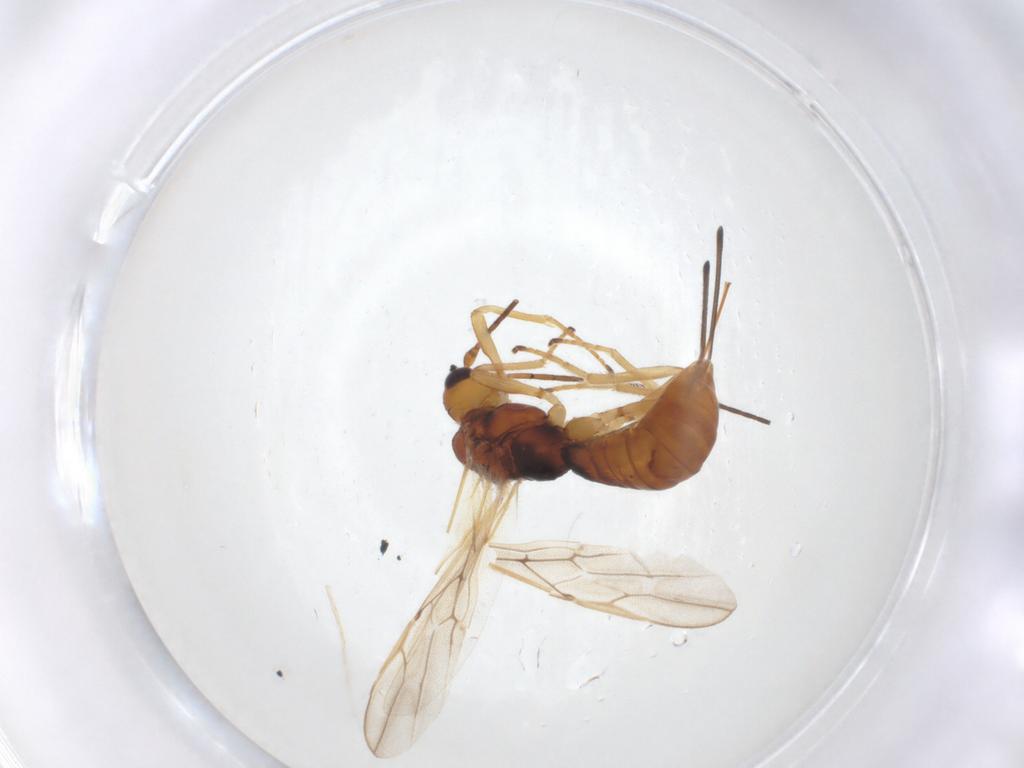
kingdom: Animalia
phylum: Arthropoda
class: Insecta
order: Hymenoptera
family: Braconidae
